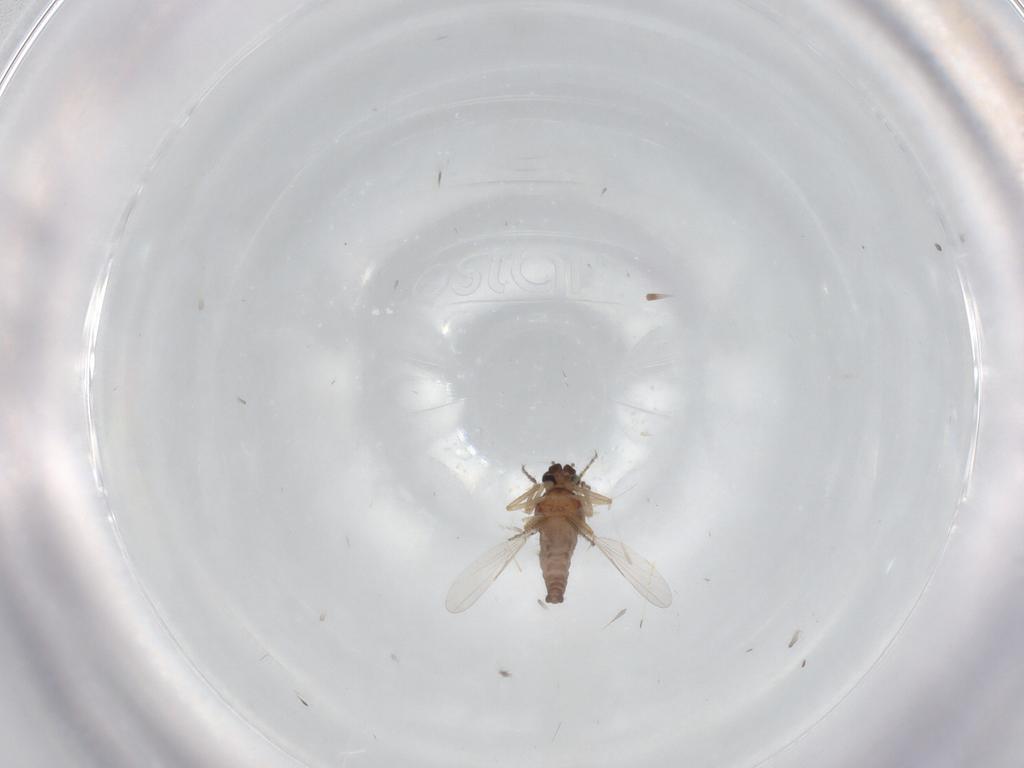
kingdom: Animalia
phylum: Arthropoda
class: Insecta
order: Diptera
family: Ceratopogonidae
